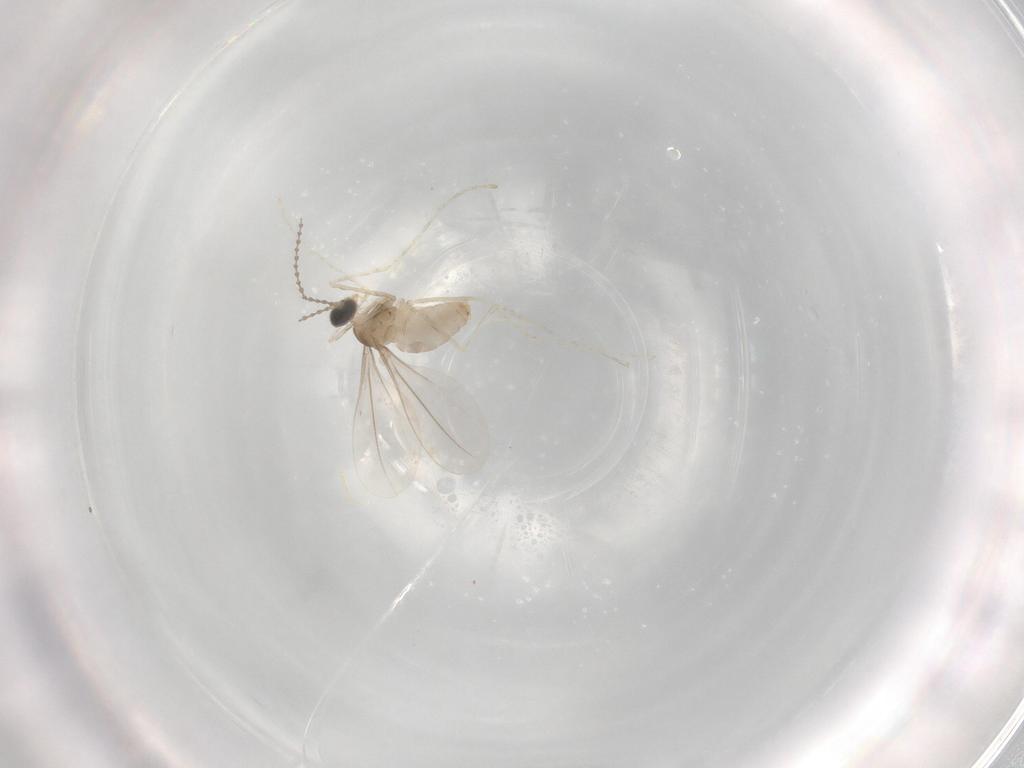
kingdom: Animalia
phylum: Arthropoda
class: Insecta
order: Diptera
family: Cecidomyiidae
